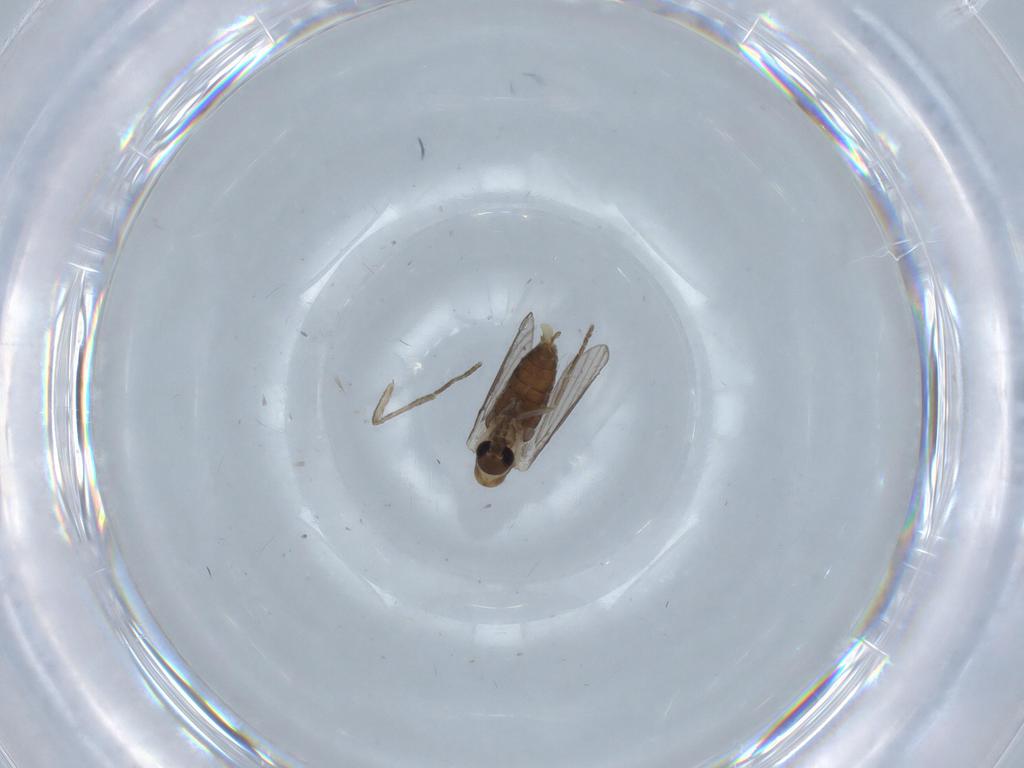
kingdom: Animalia
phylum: Arthropoda
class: Insecta
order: Diptera
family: Psychodidae
